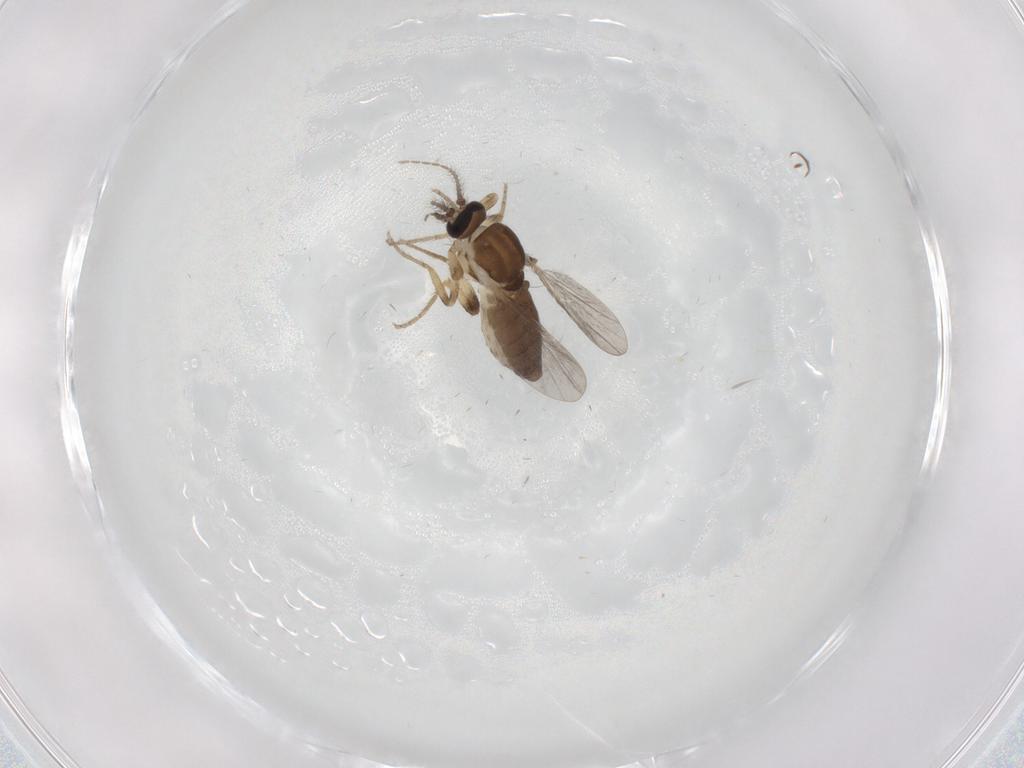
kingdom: Animalia
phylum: Arthropoda
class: Insecta
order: Diptera
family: Ceratopogonidae
